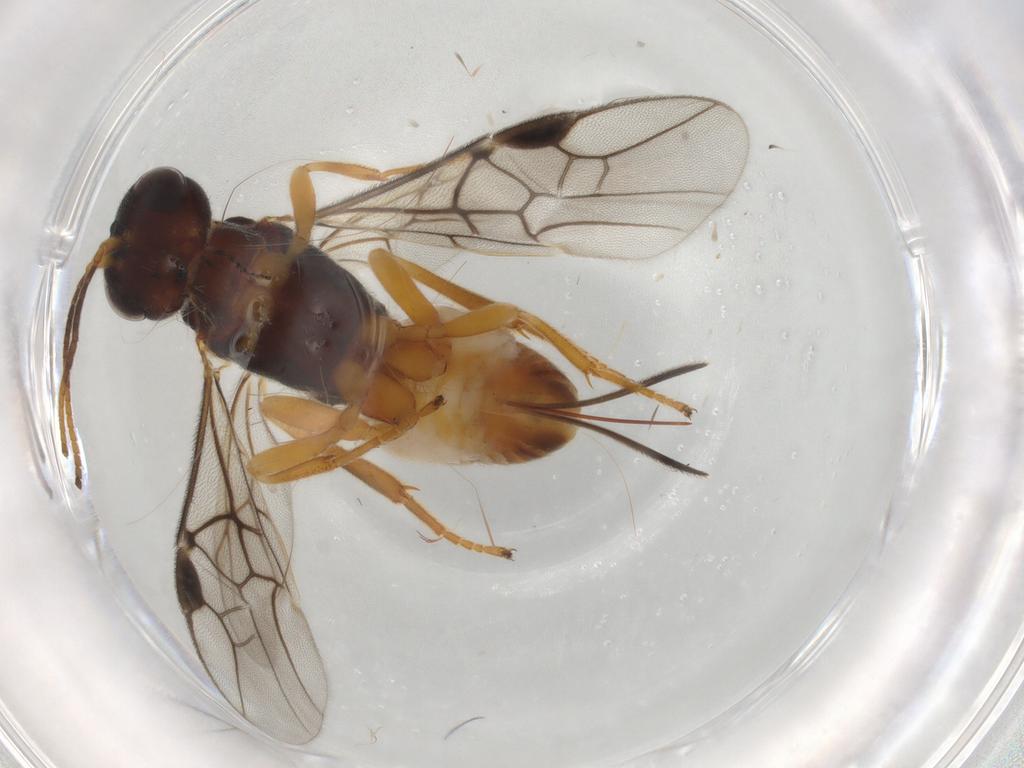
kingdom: Animalia
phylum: Arthropoda
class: Insecta
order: Hymenoptera
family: Braconidae
